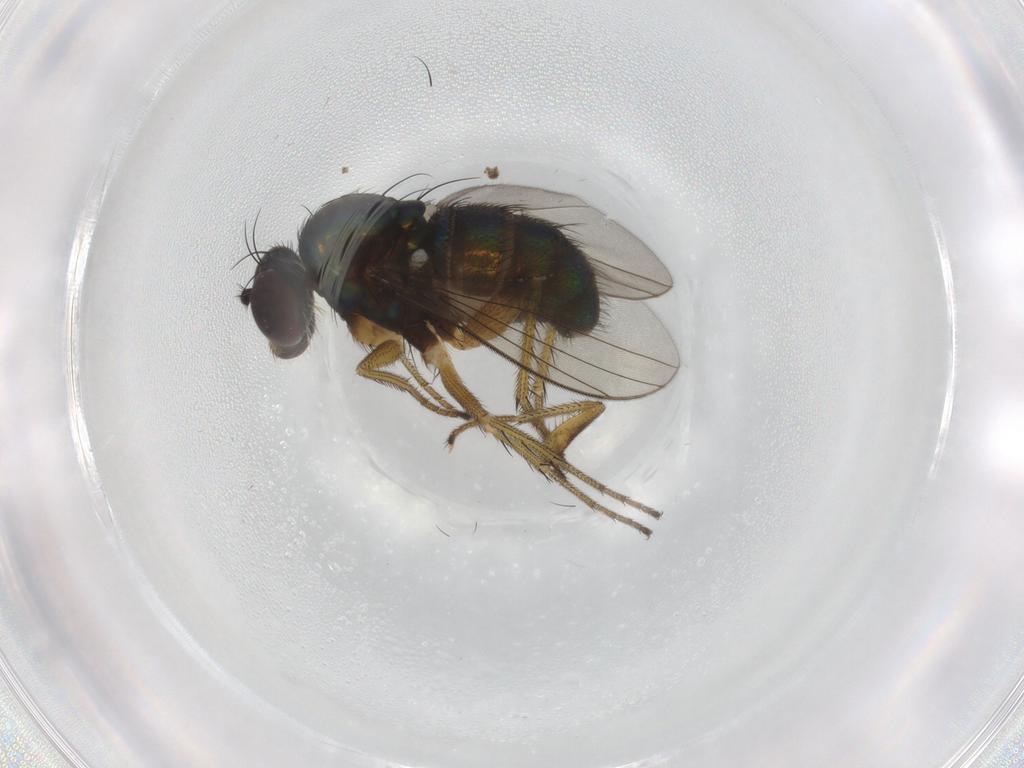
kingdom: Animalia
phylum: Arthropoda
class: Insecta
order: Diptera
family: Dolichopodidae
